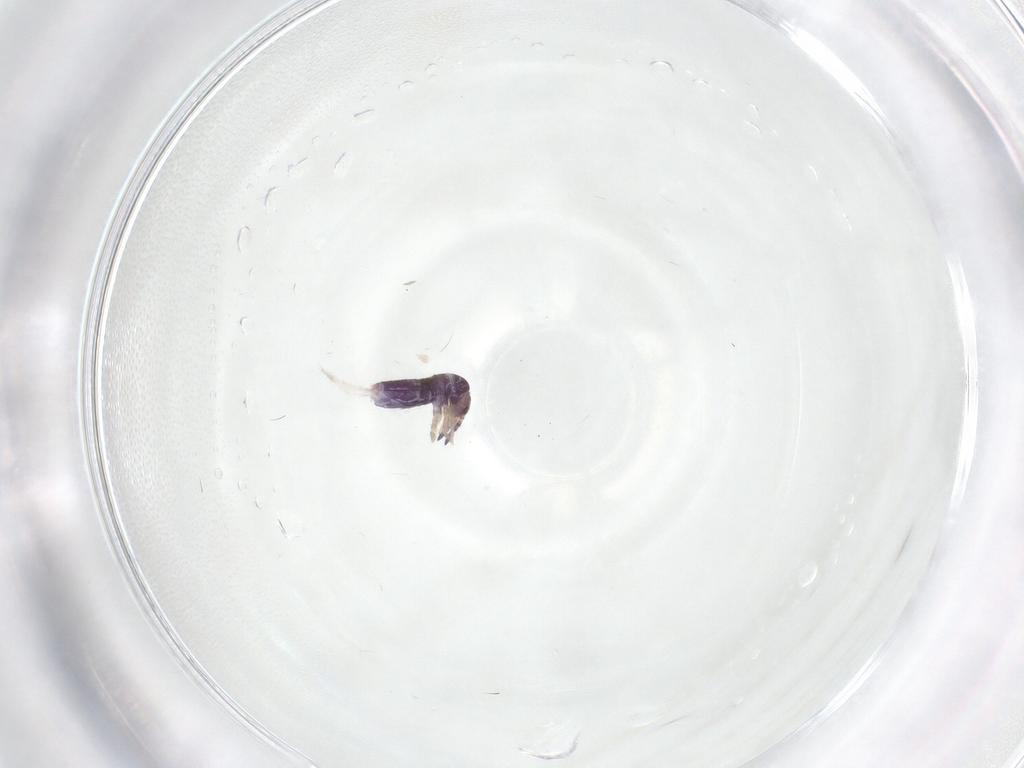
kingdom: Animalia
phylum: Arthropoda
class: Collembola
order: Entomobryomorpha
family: Entomobryidae
